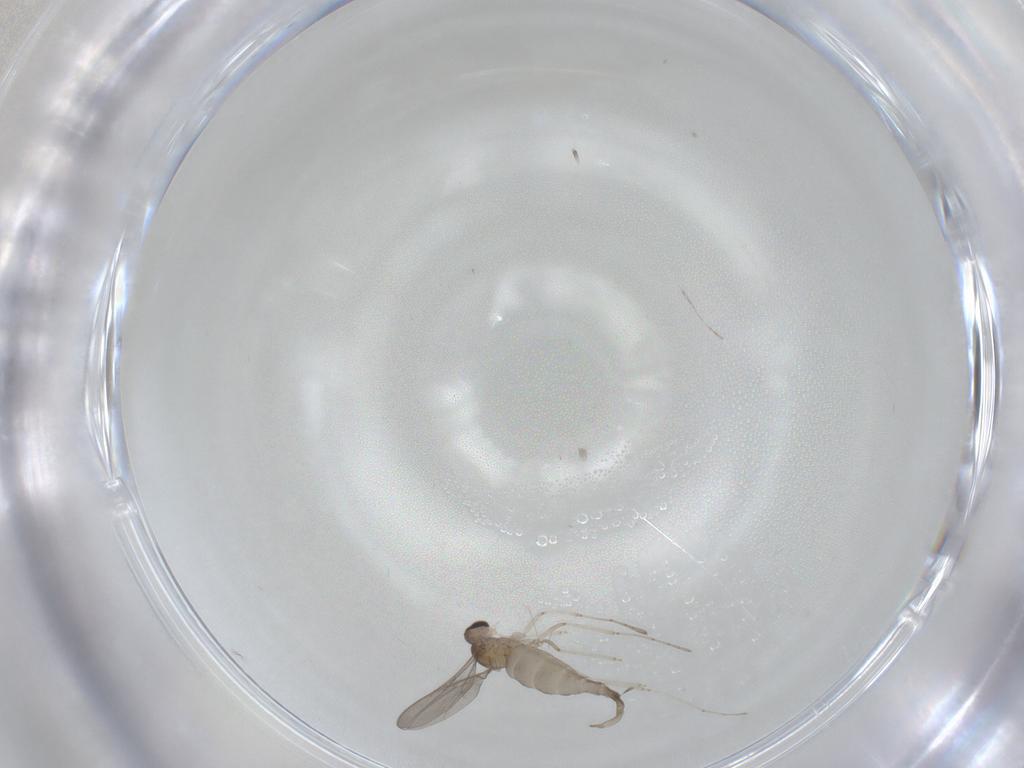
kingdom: Animalia
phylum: Arthropoda
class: Insecta
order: Diptera
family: Cecidomyiidae
